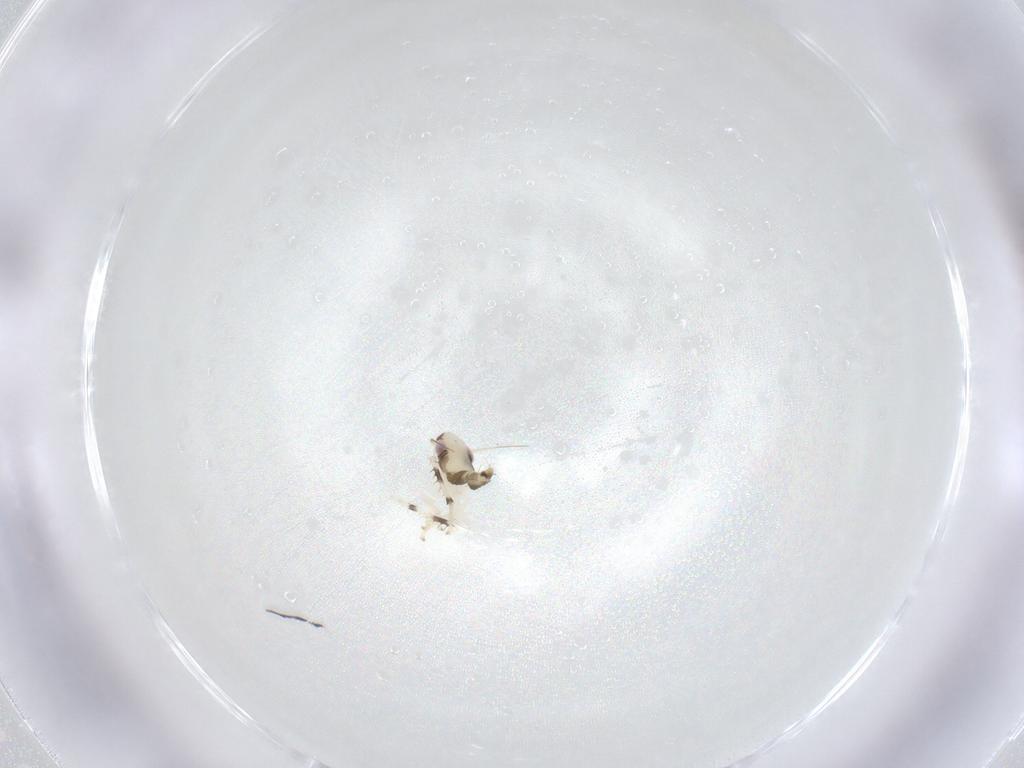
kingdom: Animalia
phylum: Arthropoda
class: Insecta
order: Hemiptera
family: Cicadellidae
